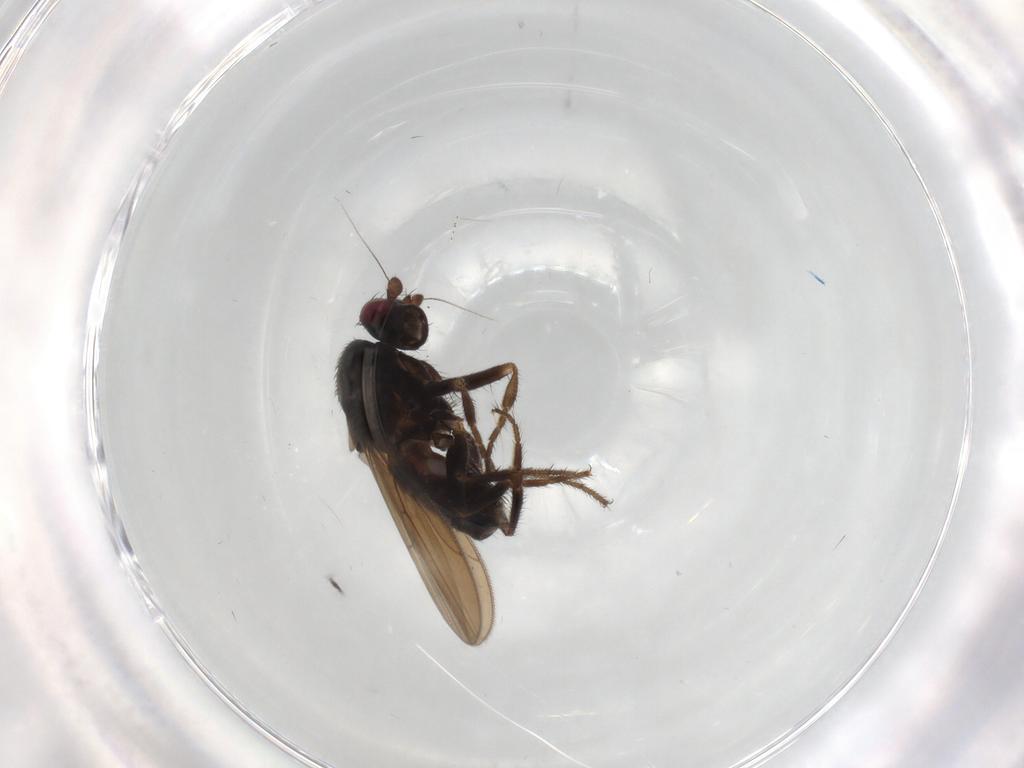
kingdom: Animalia
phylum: Arthropoda
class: Insecta
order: Diptera
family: Sphaeroceridae
